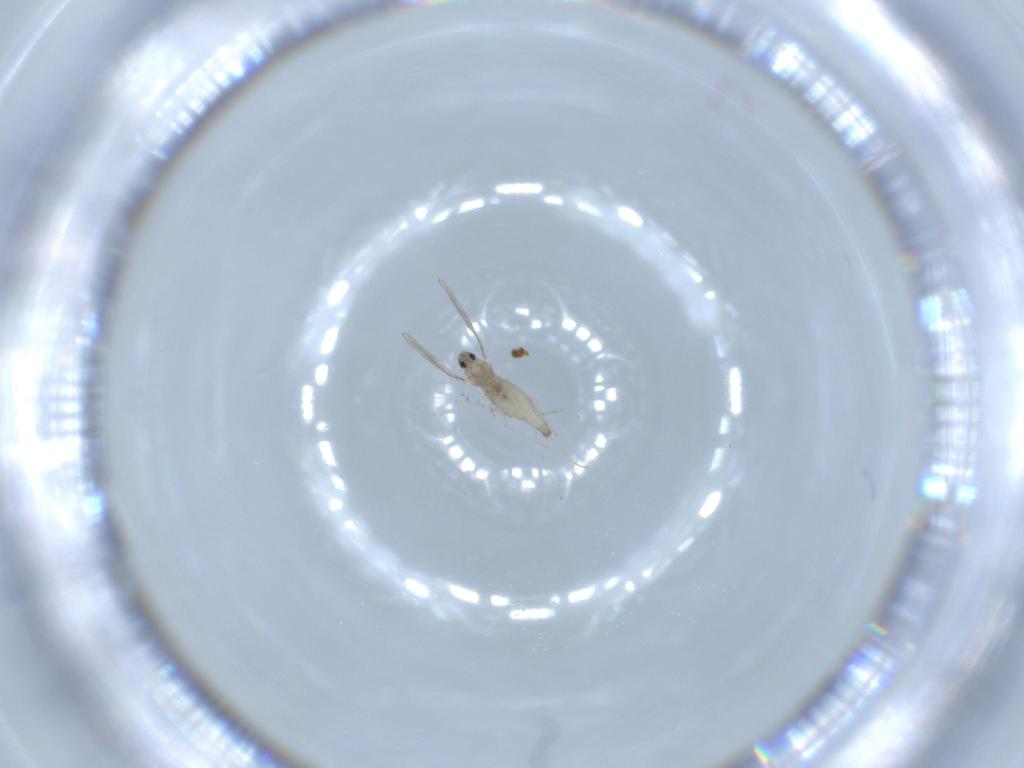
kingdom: Animalia
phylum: Arthropoda
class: Insecta
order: Diptera
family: Cecidomyiidae
